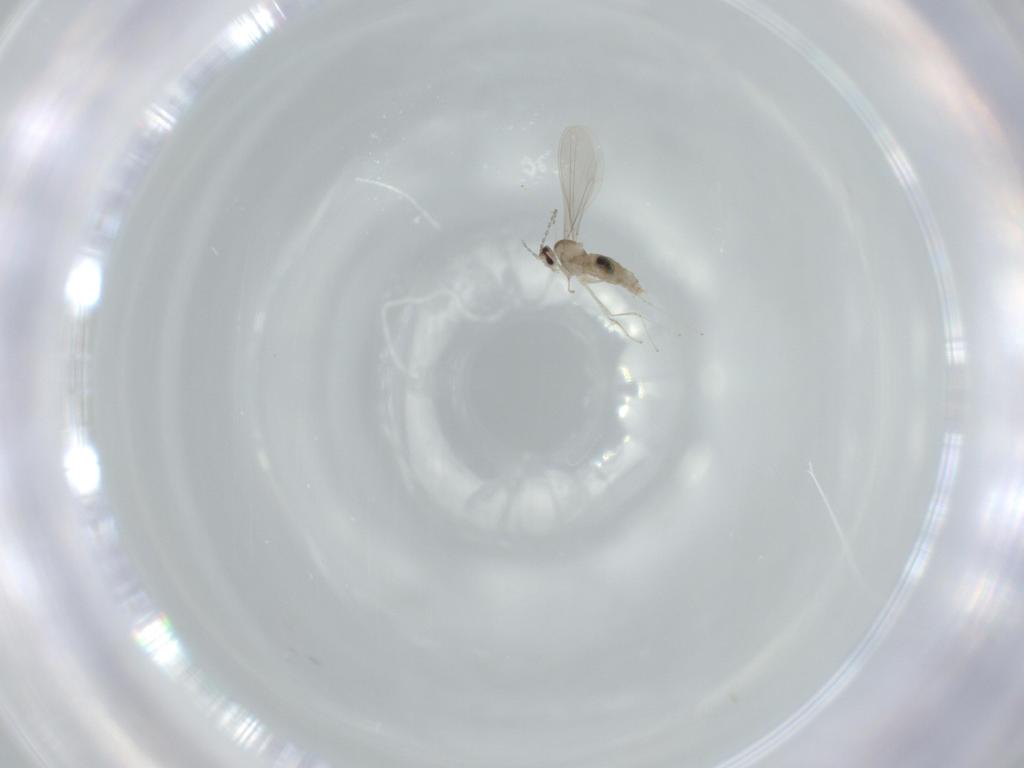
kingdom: Animalia
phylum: Arthropoda
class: Insecta
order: Diptera
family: Cecidomyiidae
